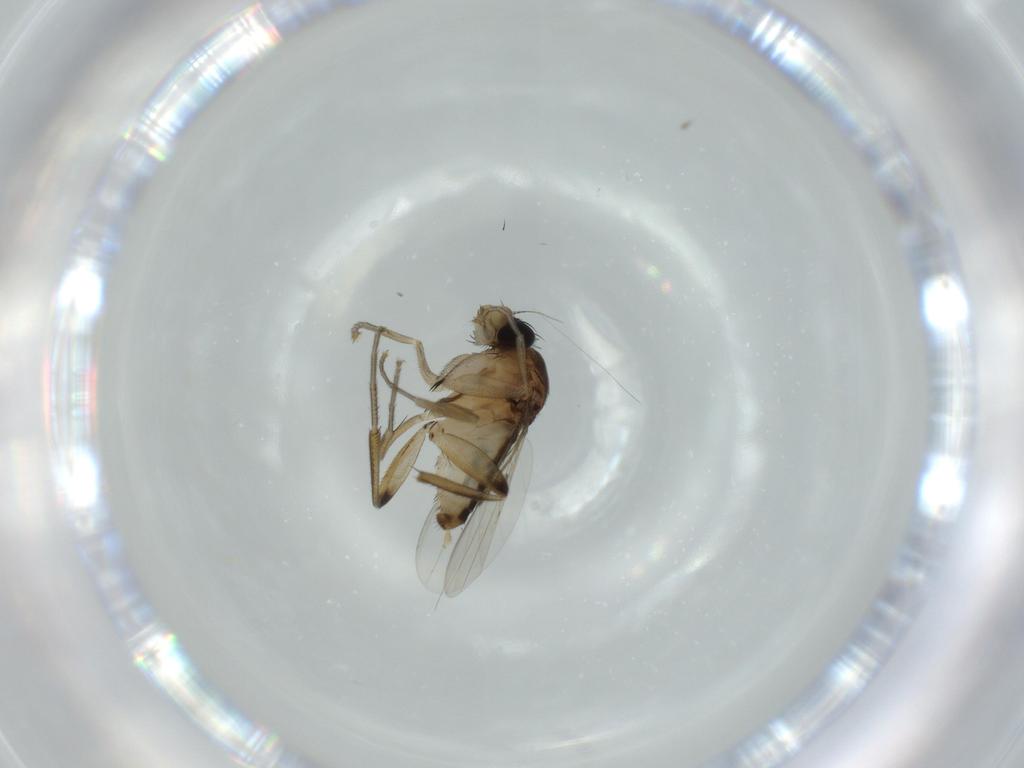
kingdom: Animalia
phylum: Arthropoda
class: Insecta
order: Diptera
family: Phoridae
